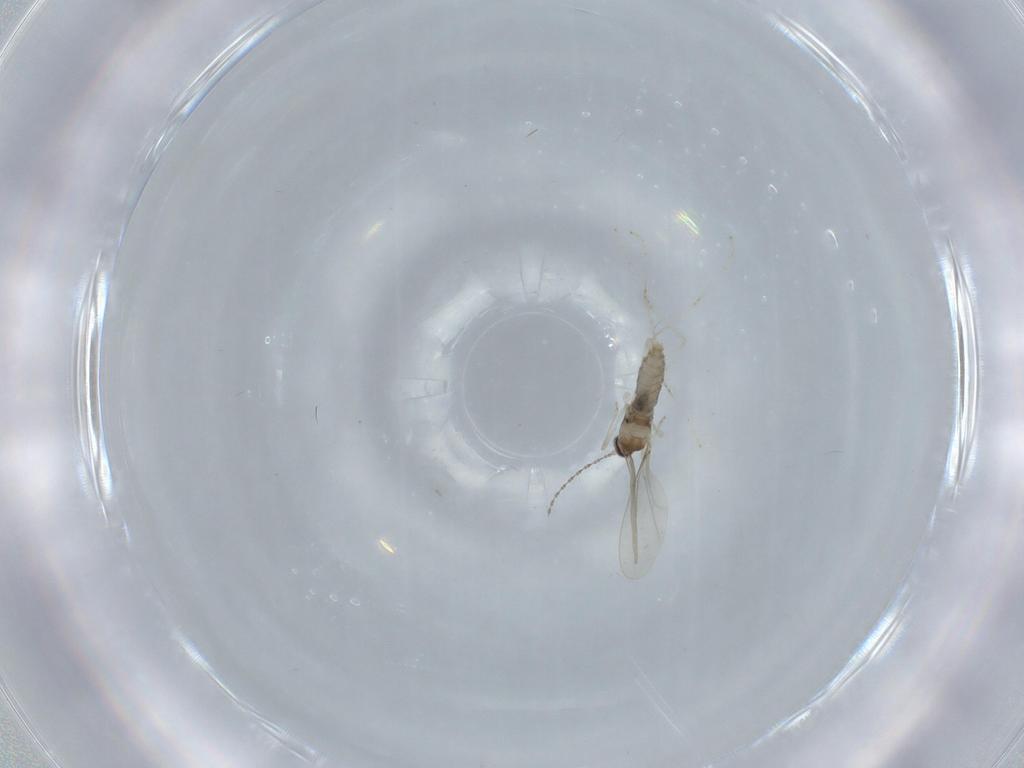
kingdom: Animalia
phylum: Arthropoda
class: Insecta
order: Diptera
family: Cecidomyiidae
